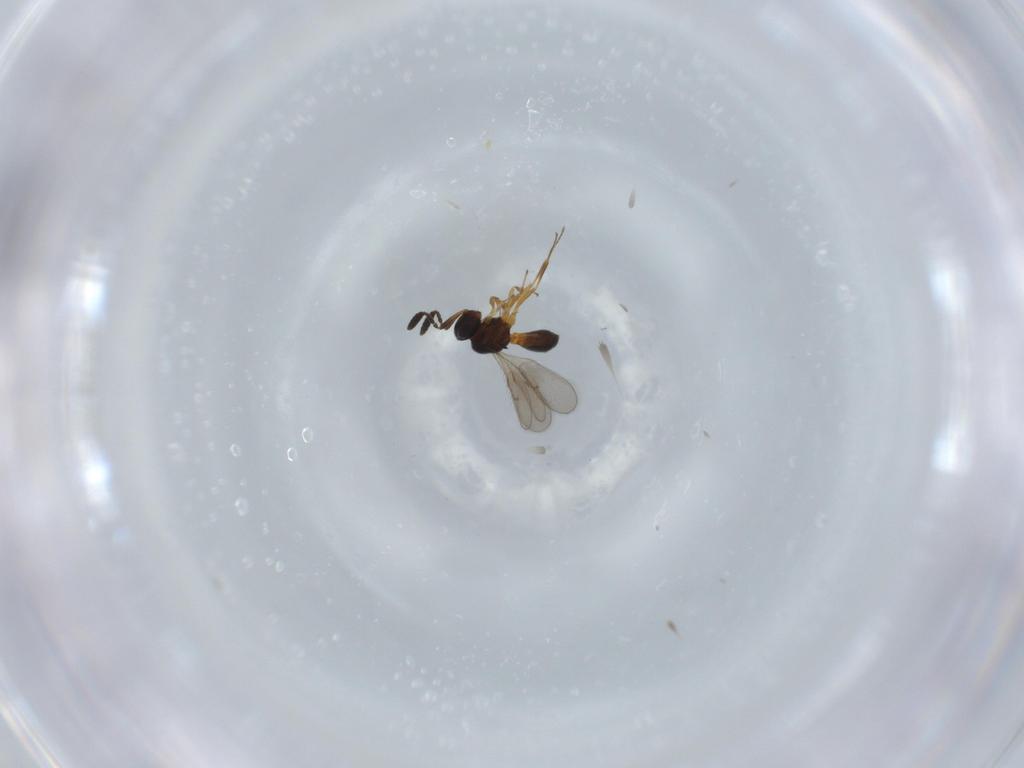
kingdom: Animalia
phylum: Arthropoda
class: Insecta
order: Hymenoptera
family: Scelionidae
